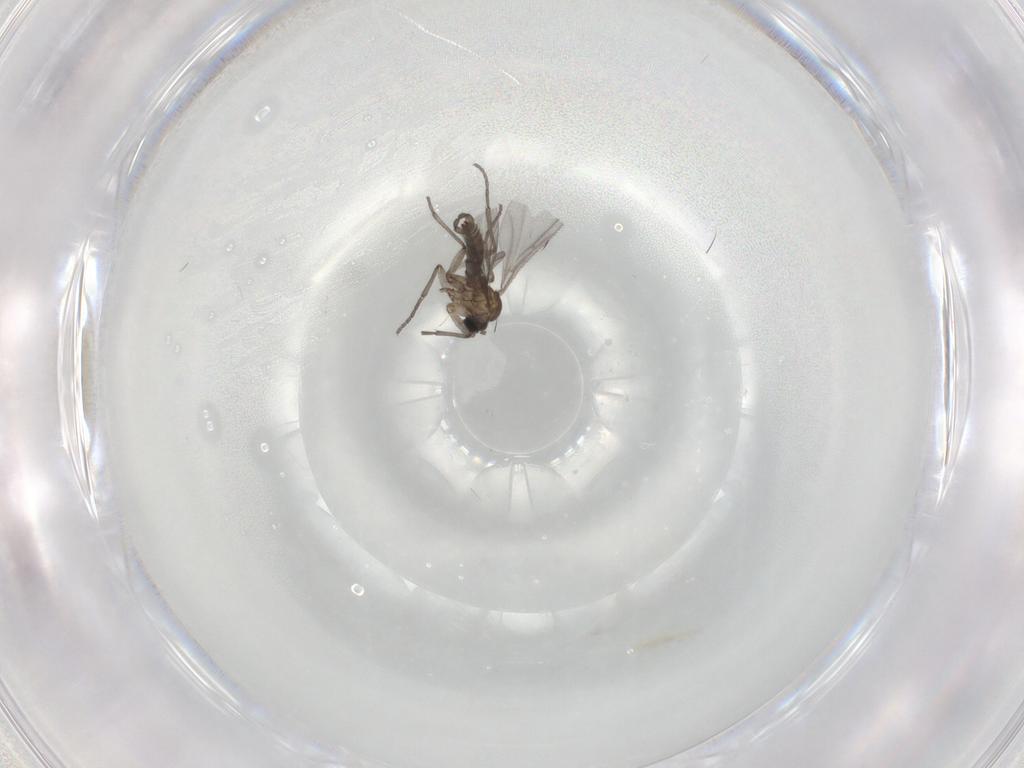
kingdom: Animalia
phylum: Arthropoda
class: Insecta
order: Diptera
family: Sciaridae
